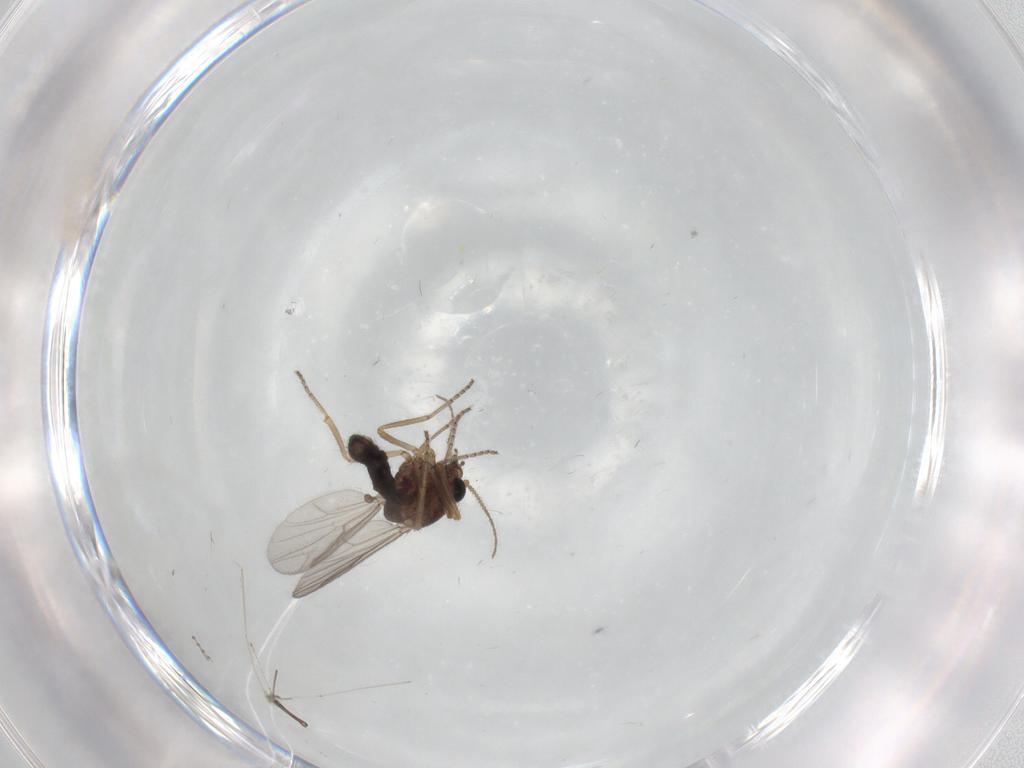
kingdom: Animalia
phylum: Arthropoda
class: Insecta
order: Diptera
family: Ceratopogonidae
